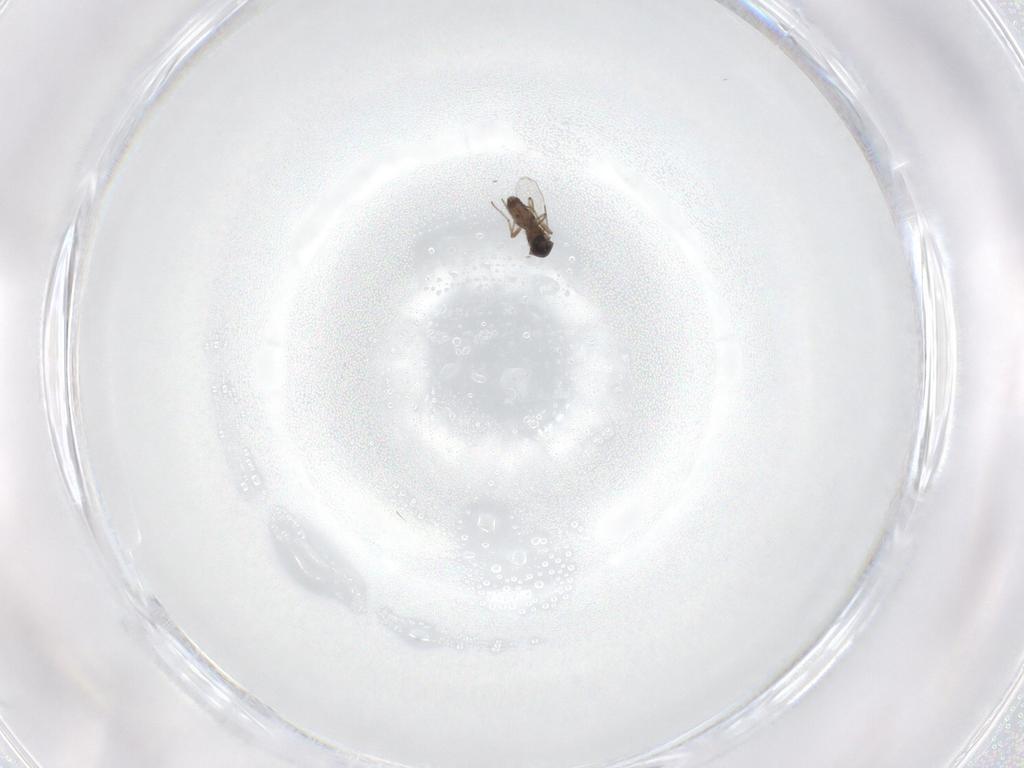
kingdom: Animalia
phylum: Arthropoda
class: Insecta
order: Diptera
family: Ceratopogonidae
